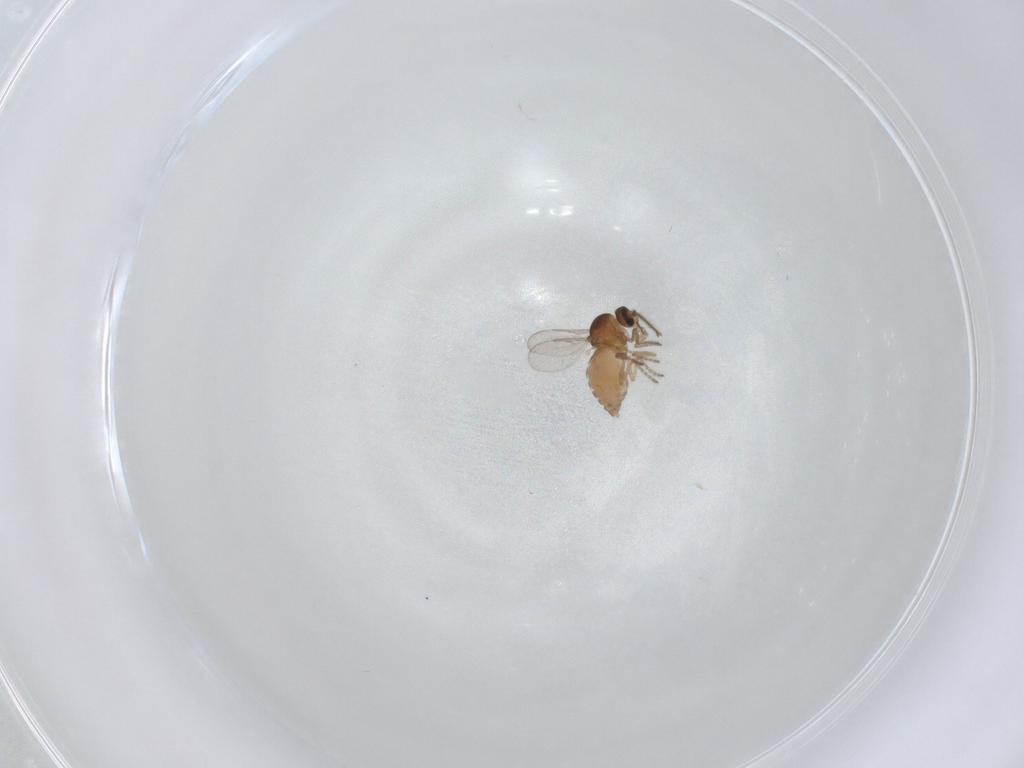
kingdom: Animalia
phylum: Arthropoda
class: Insecta
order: Diptera
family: Ceratopogonidae
